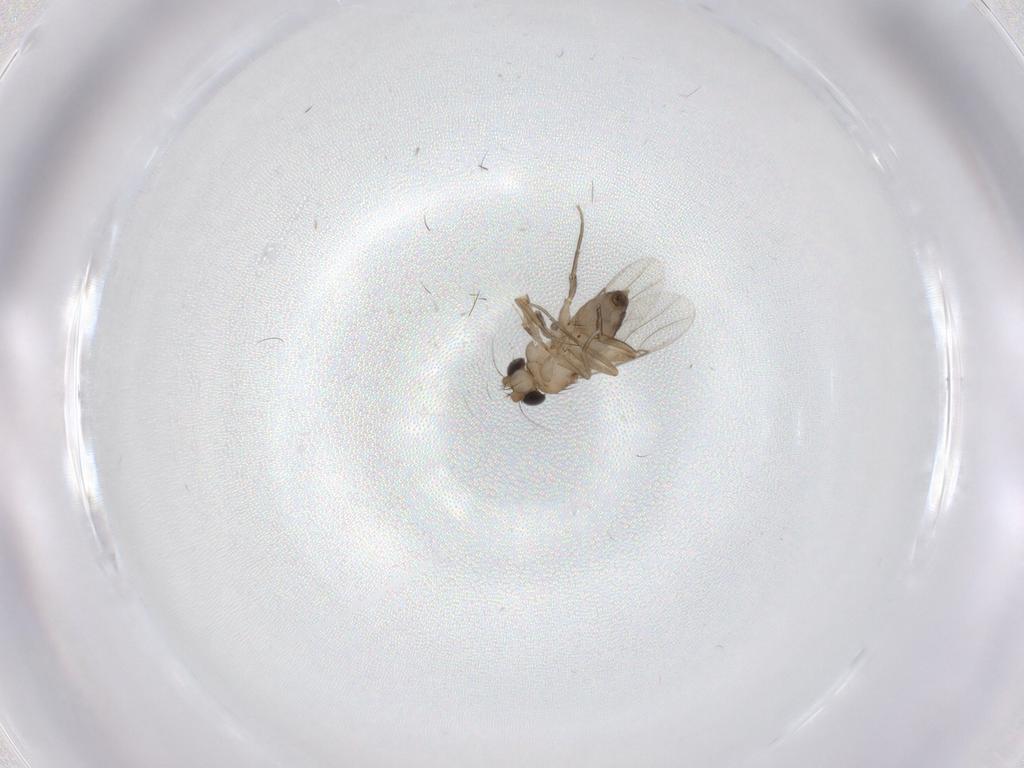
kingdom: Animalia
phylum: Arthropoda
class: Insecta
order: Diptera
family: Phoridae
